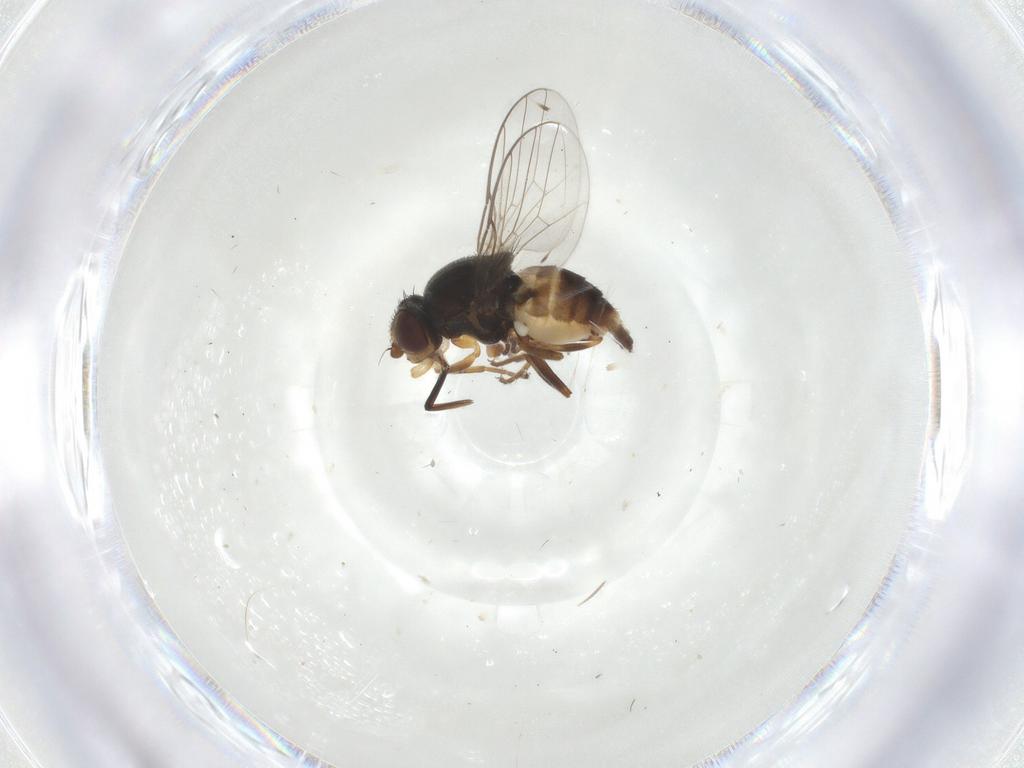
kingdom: Animalia
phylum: Arthropoda
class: Insecta
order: Diptera
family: Chloropidae
